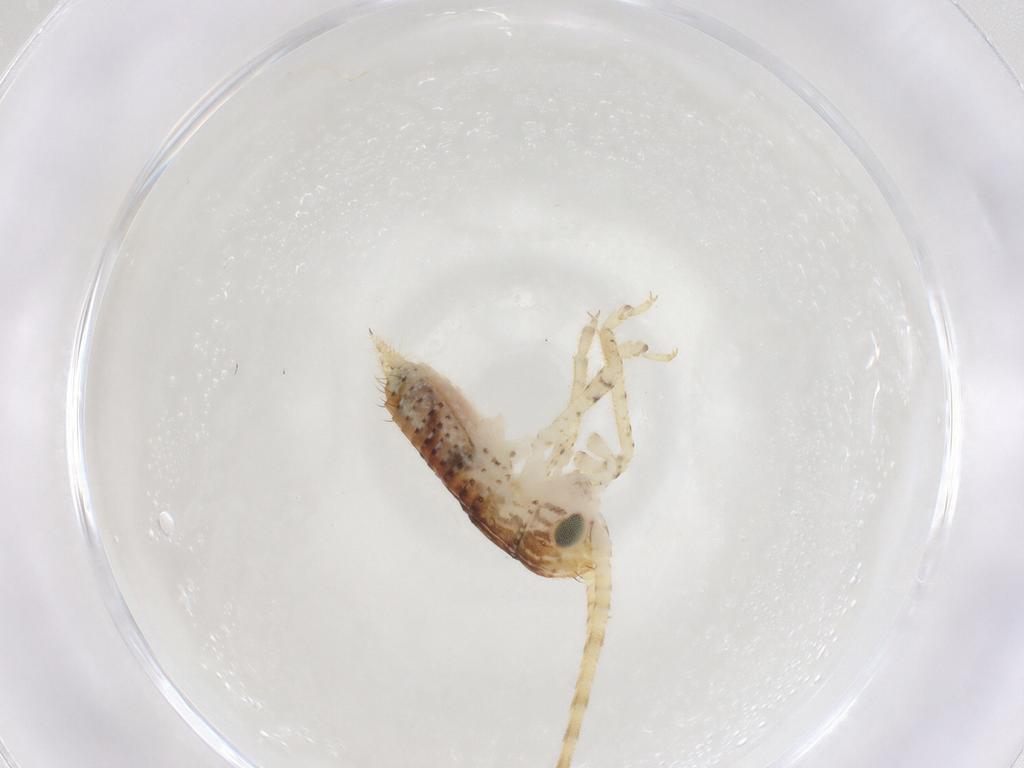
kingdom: Animalia
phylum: Arthropoda
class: Insecta
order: Orthoptera
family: Gryllidae
